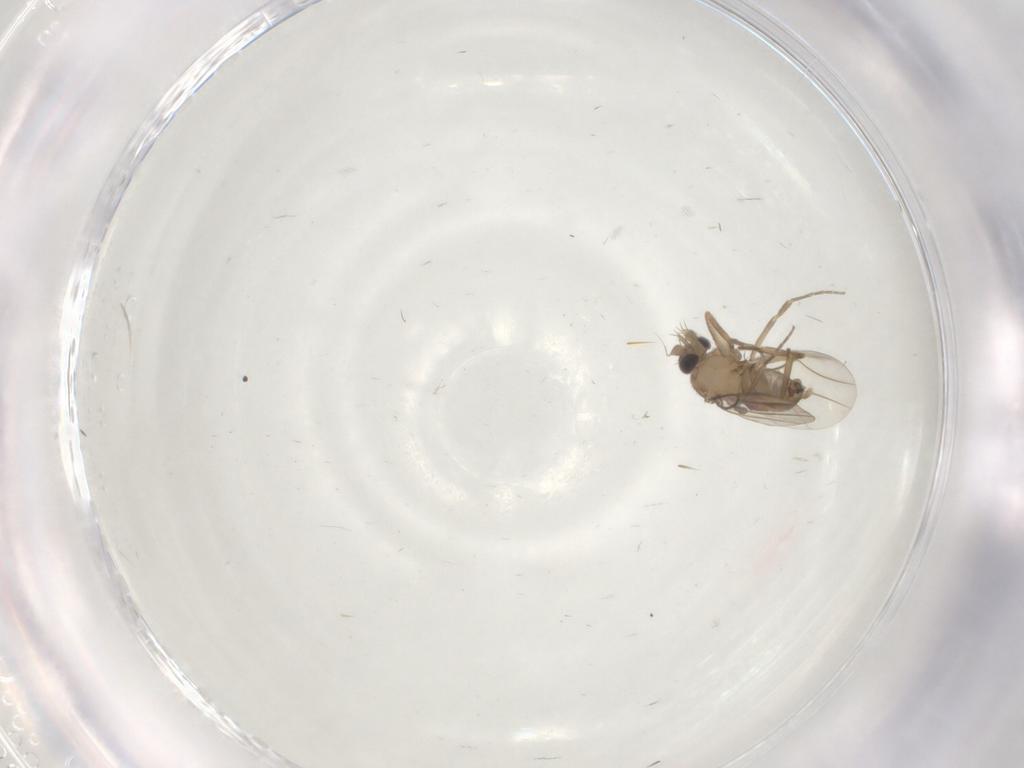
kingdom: Animalia
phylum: Arthropoda
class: Insecta
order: Diptera
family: Phoridae
